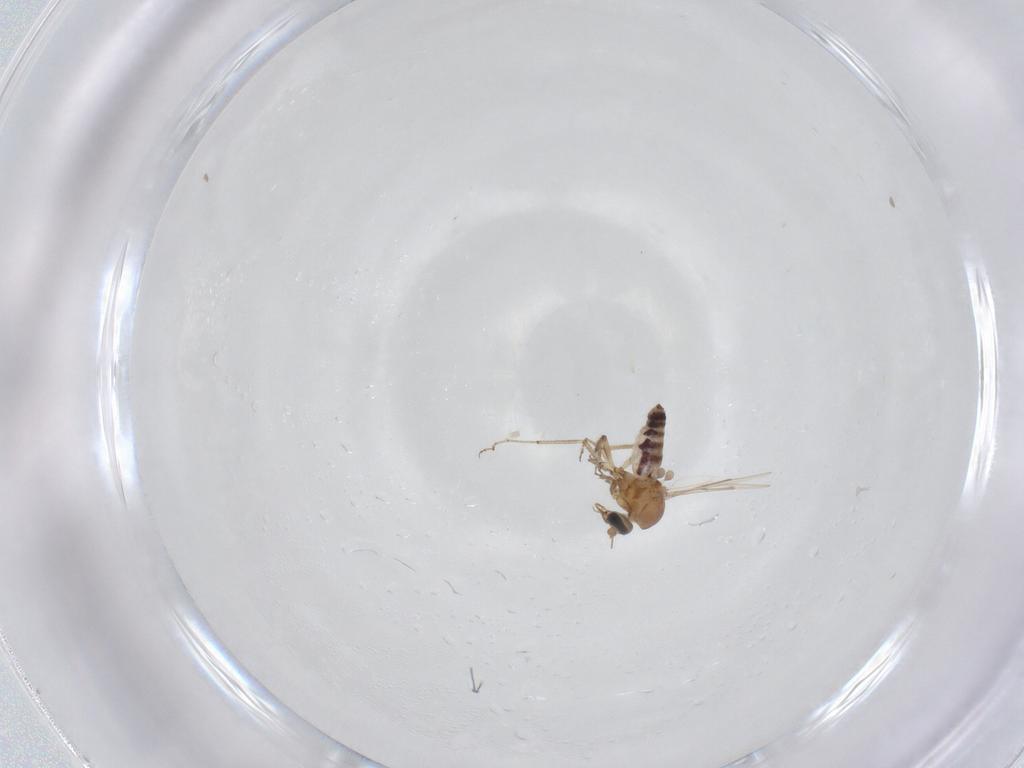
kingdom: Animalia
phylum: Arthropoda
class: Insecta
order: Diptera
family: Ceratopogonidae
